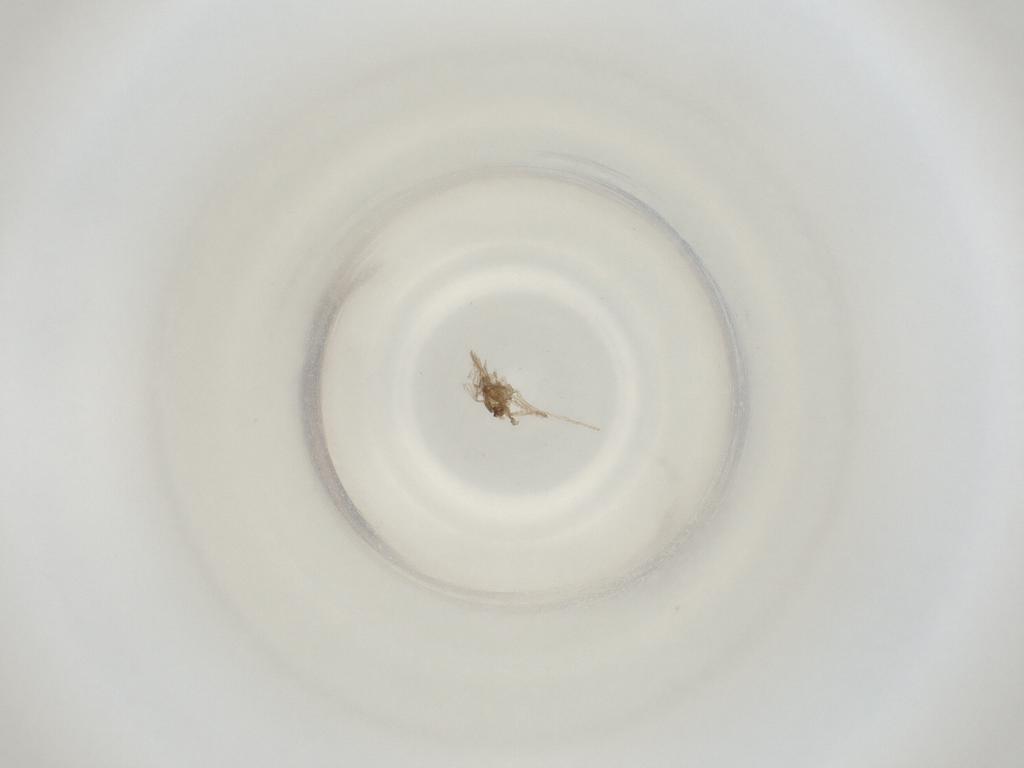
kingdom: Animalia
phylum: Arthropoda
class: Insecta
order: Diptera
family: Cecidomyiidae
